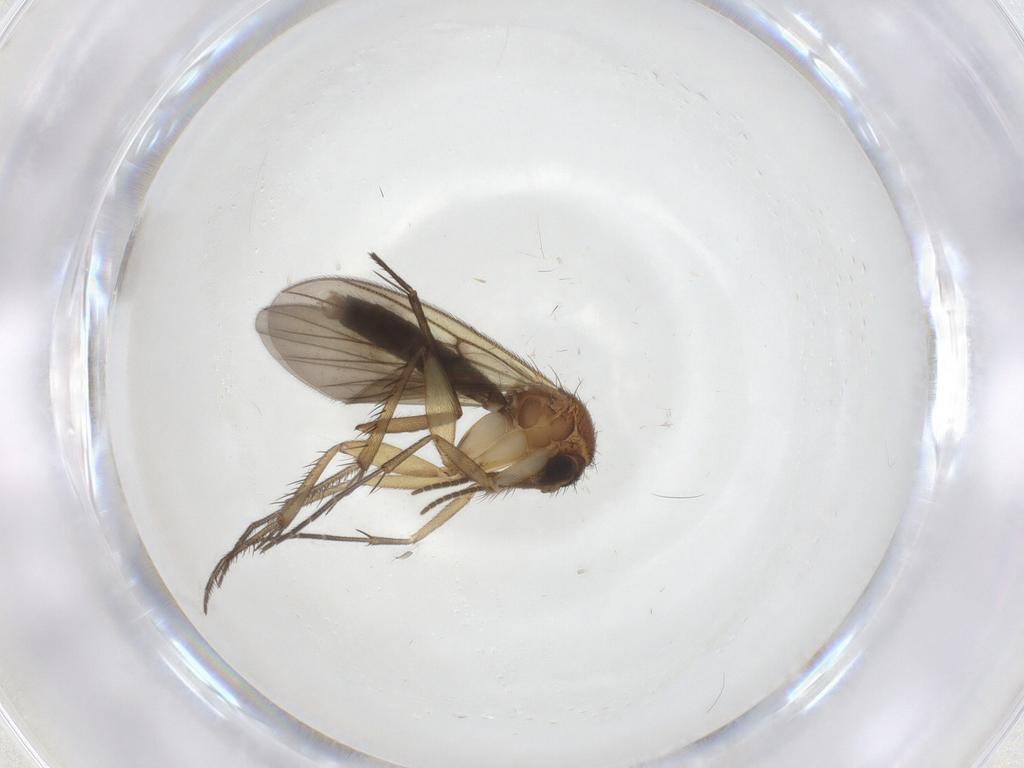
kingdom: Animalia
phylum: Arthropoda
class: Insecta
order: Diptera
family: Mycetophilidae
